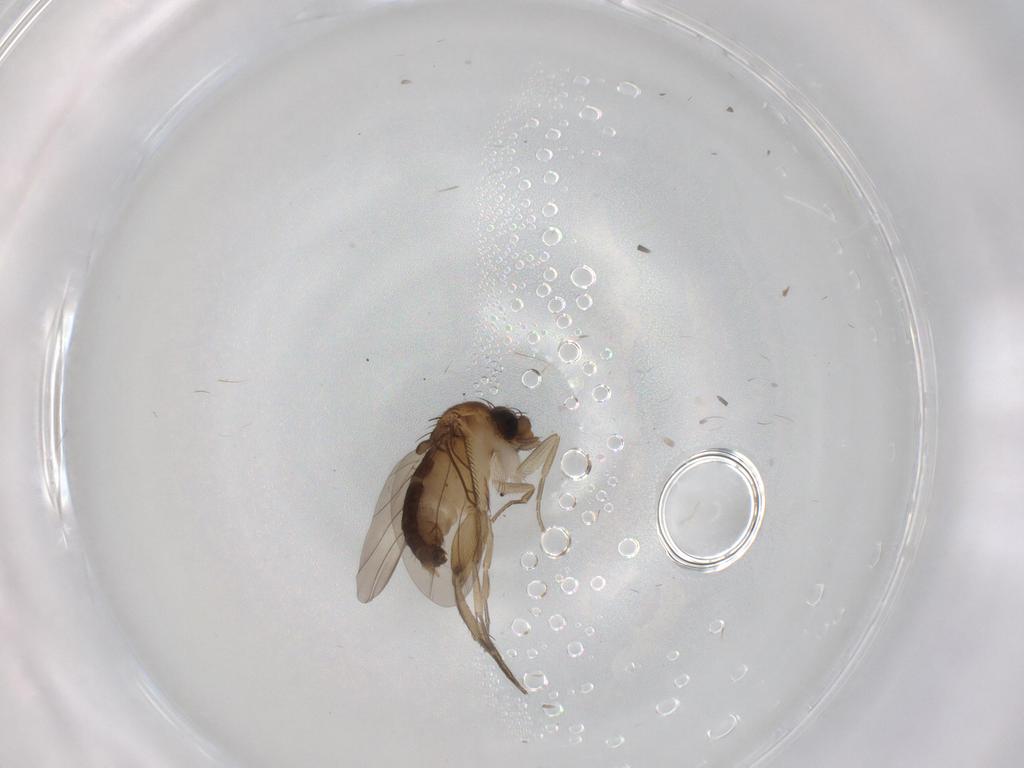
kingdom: Animalia
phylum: Arthropoda
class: Insecta
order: Diptera
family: Phoridae
